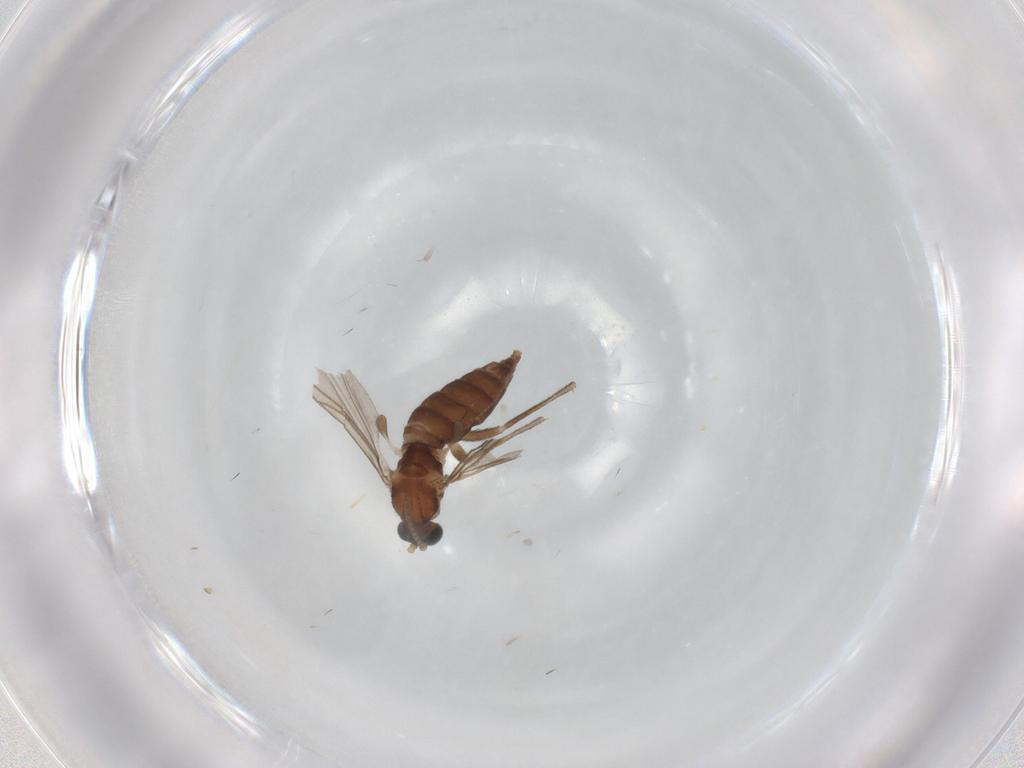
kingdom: Animalia
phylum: Arthropoda
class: Insecta
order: Diptera
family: Sciaridae
